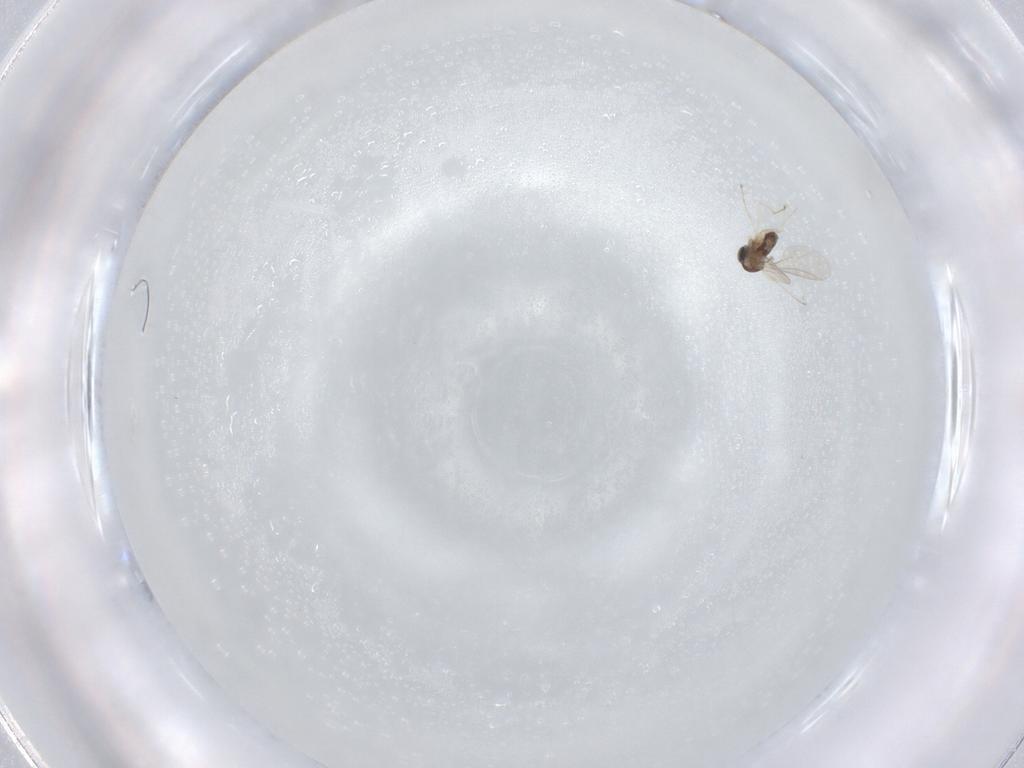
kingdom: Animalia
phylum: Arthropoda
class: Insecta
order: Diptera
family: Cecidomyiidae
